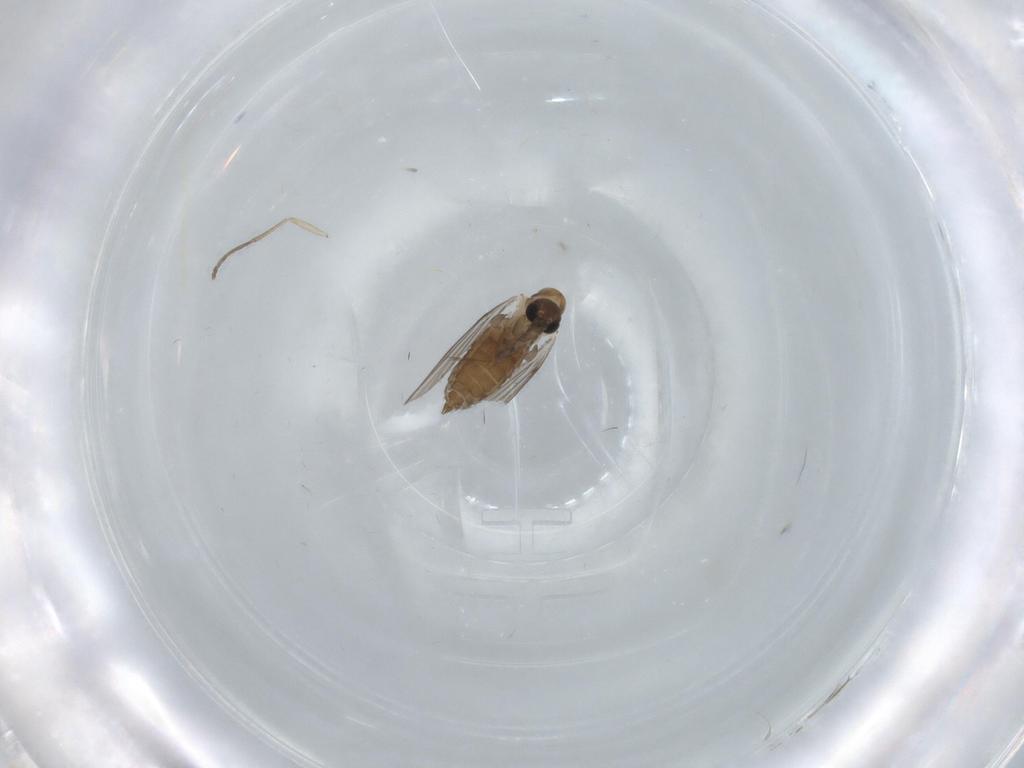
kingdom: Animalia
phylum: Arthropoda
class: Insecta
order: Diptera
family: Psychodidae
